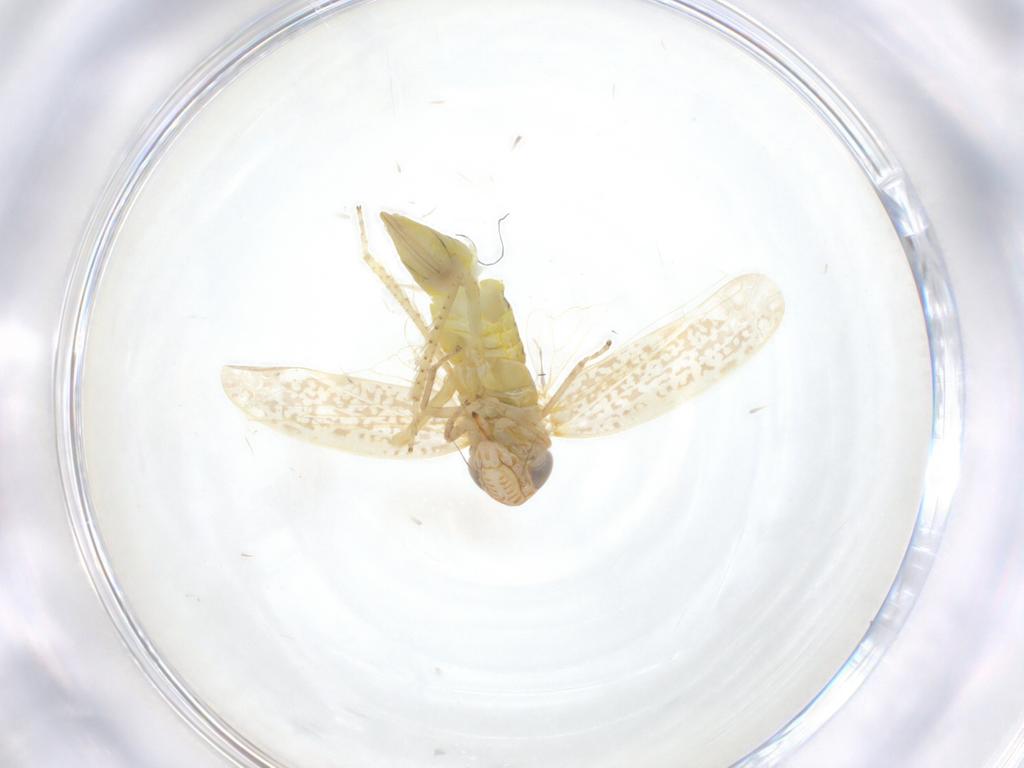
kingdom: Animalia
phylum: Arthropoda
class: Insecta
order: Hemiptera
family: Cicadellidae
